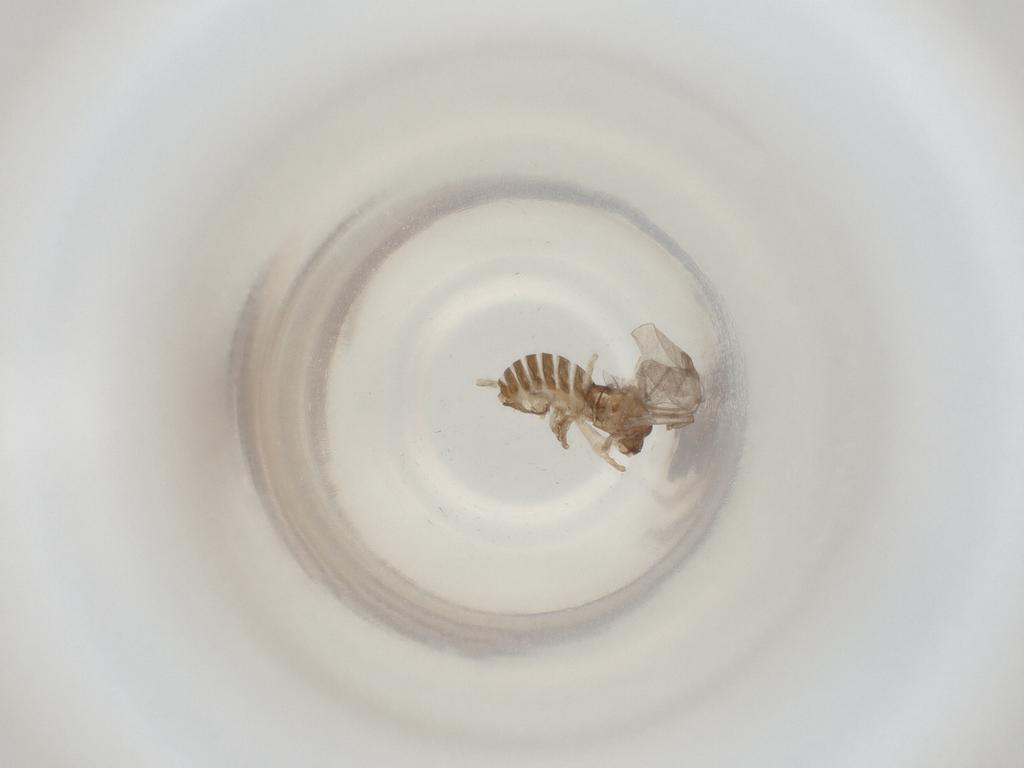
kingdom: Animalia
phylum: Arthropoda
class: Insecta
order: Diptera
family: Cecidomyiidae
